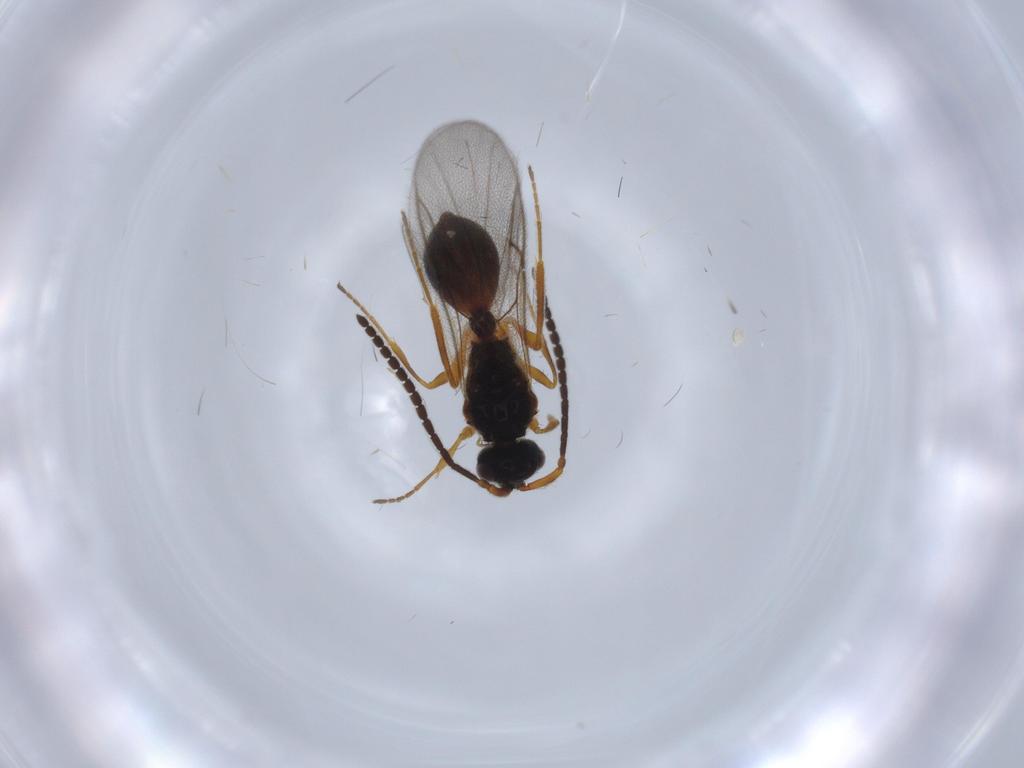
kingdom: Animalia
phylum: Arthropoda
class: Insecta
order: Hymenoptera
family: Diapriidae
